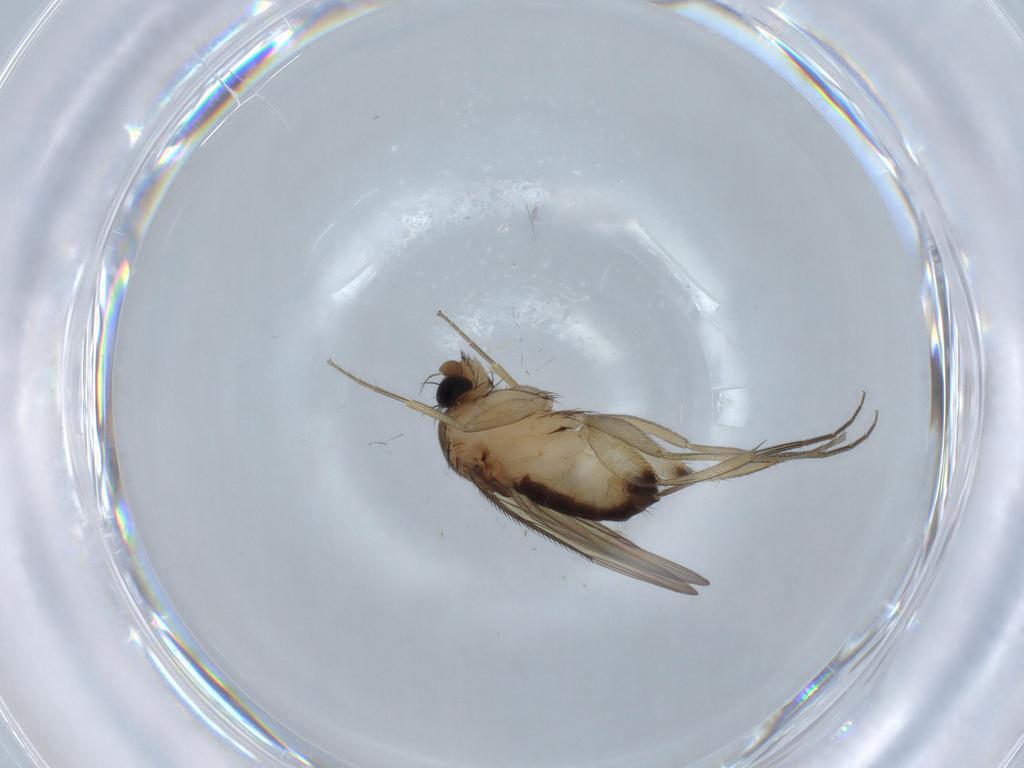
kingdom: Animalia
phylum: Arthropoda
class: Insecta
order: Diptera
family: Phoridae
